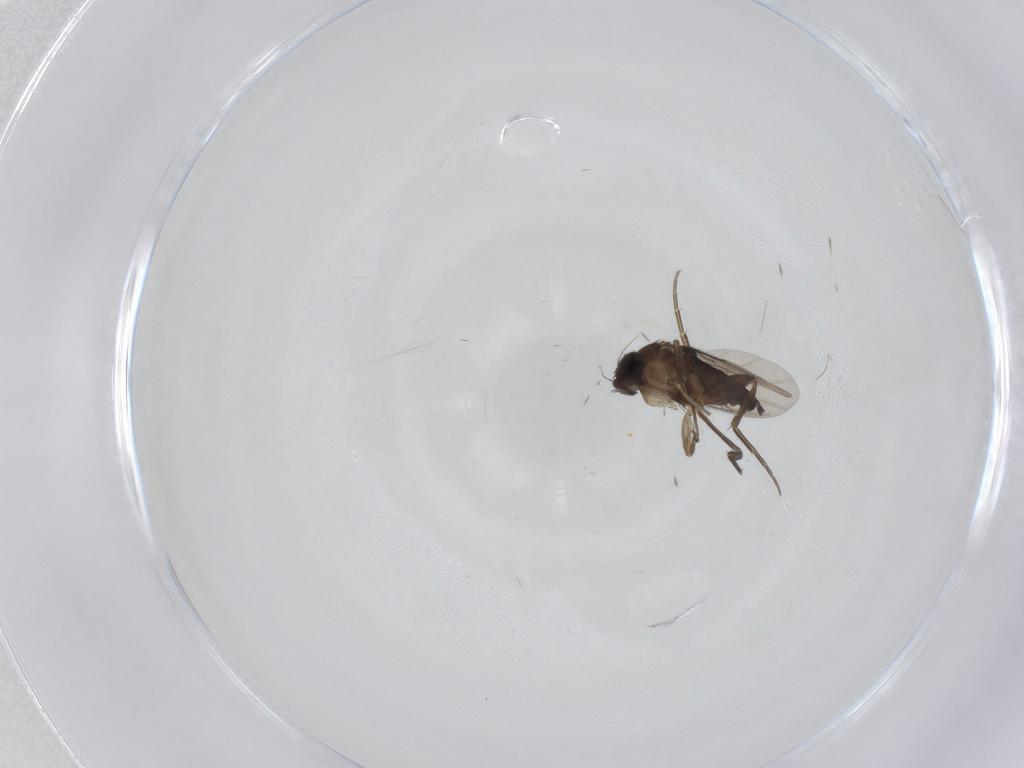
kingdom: Animalia
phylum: Arthropoda
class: Insecta
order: Diptera
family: Phoridae
